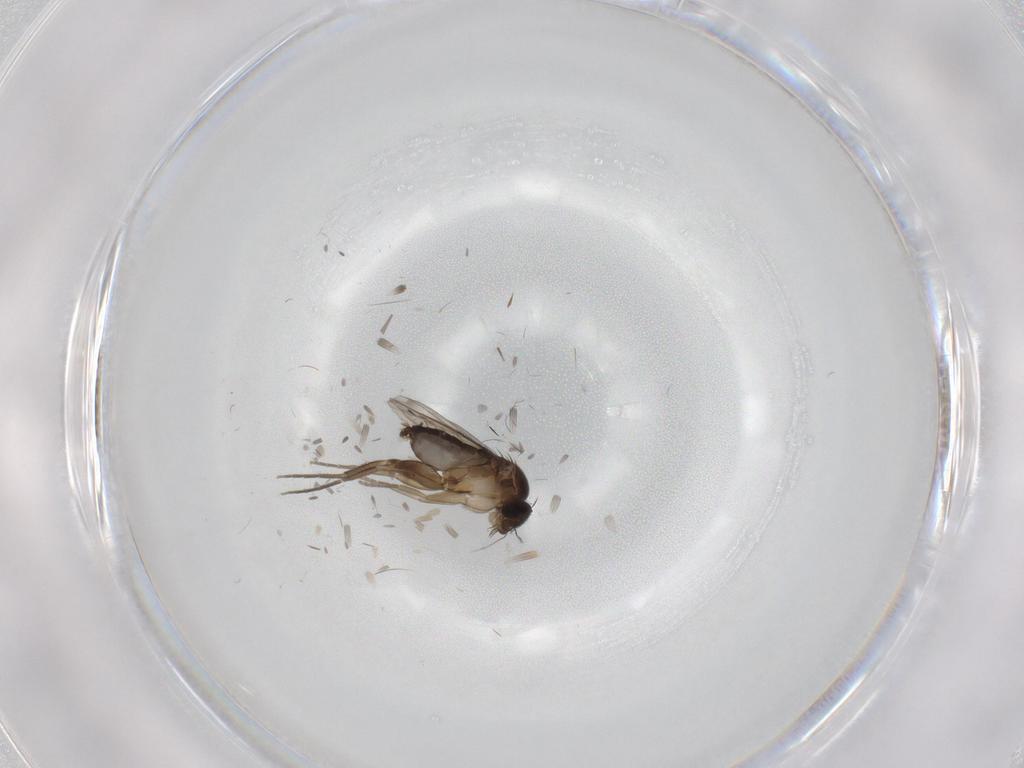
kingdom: Animalia
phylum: Arthropoda
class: Insecta
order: Diptera
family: Phoridae
